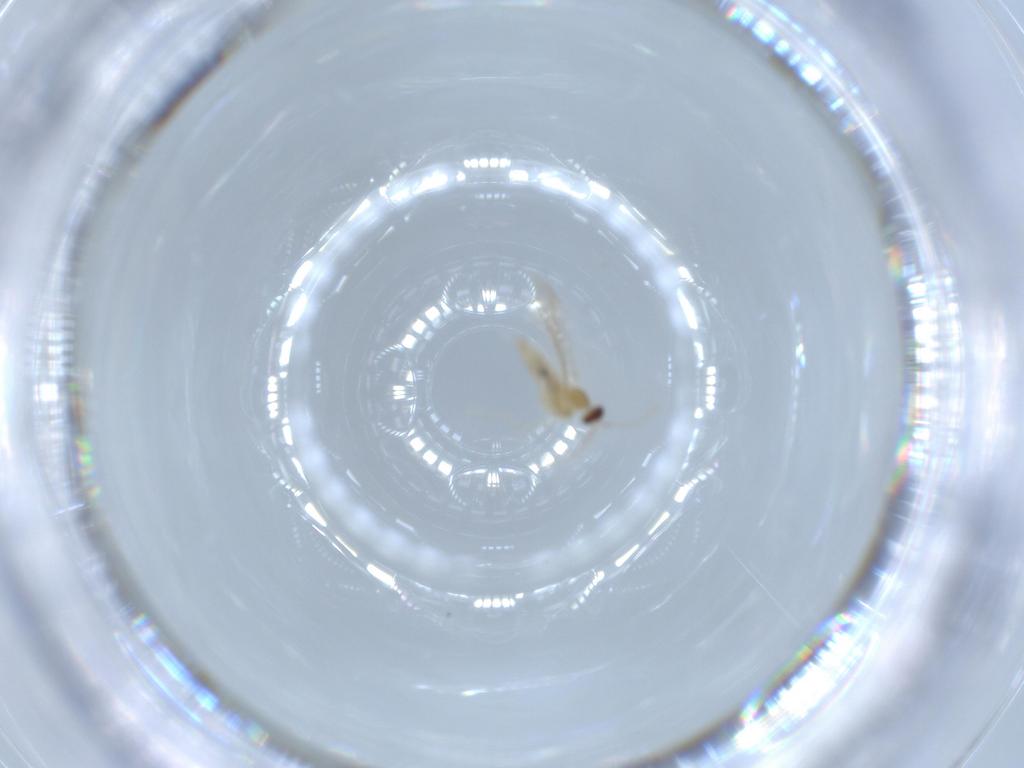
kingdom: Animalia
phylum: Arthropoda
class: Insecta
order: Diptera
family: Cecidomyiidae
